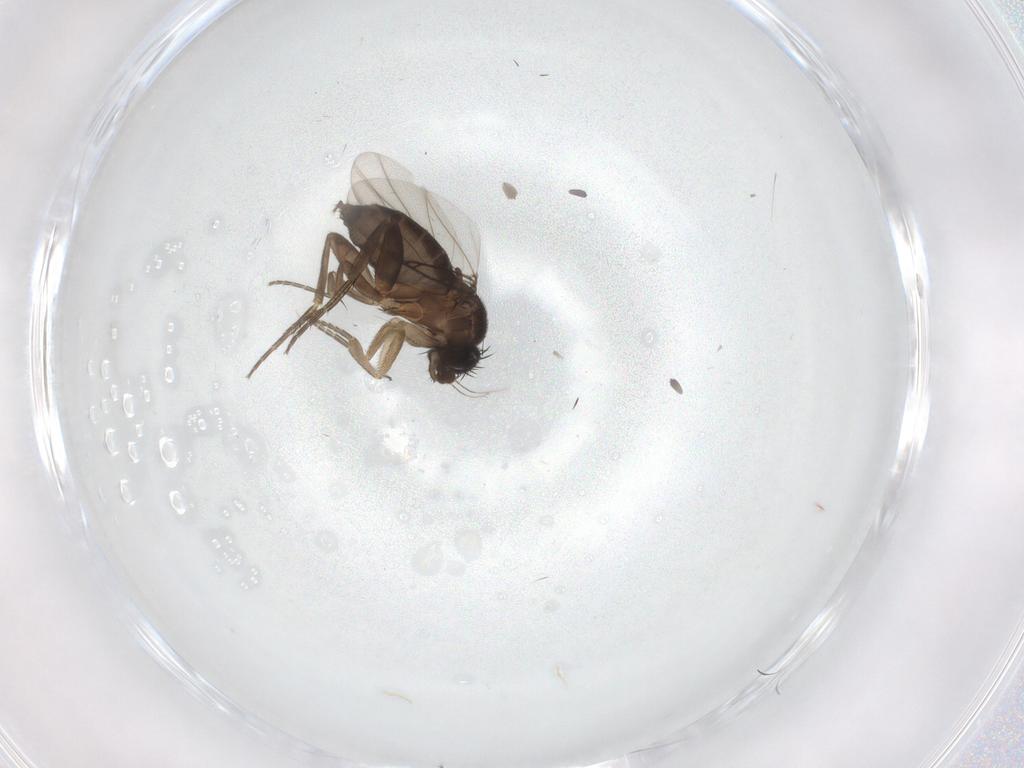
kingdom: Animalia
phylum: Arthropoda
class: Insecta
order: Diptera
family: Phoridae
